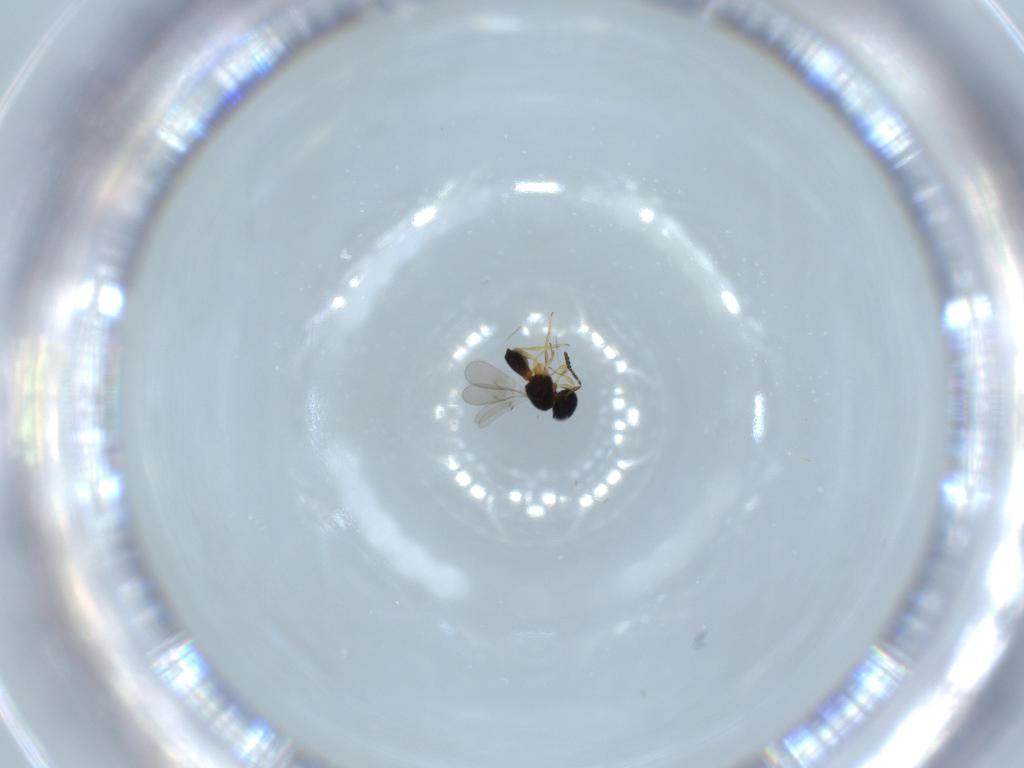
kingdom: Animalia
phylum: Arthropoda
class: Insecta
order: Hymenoptera
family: Scelionidae
